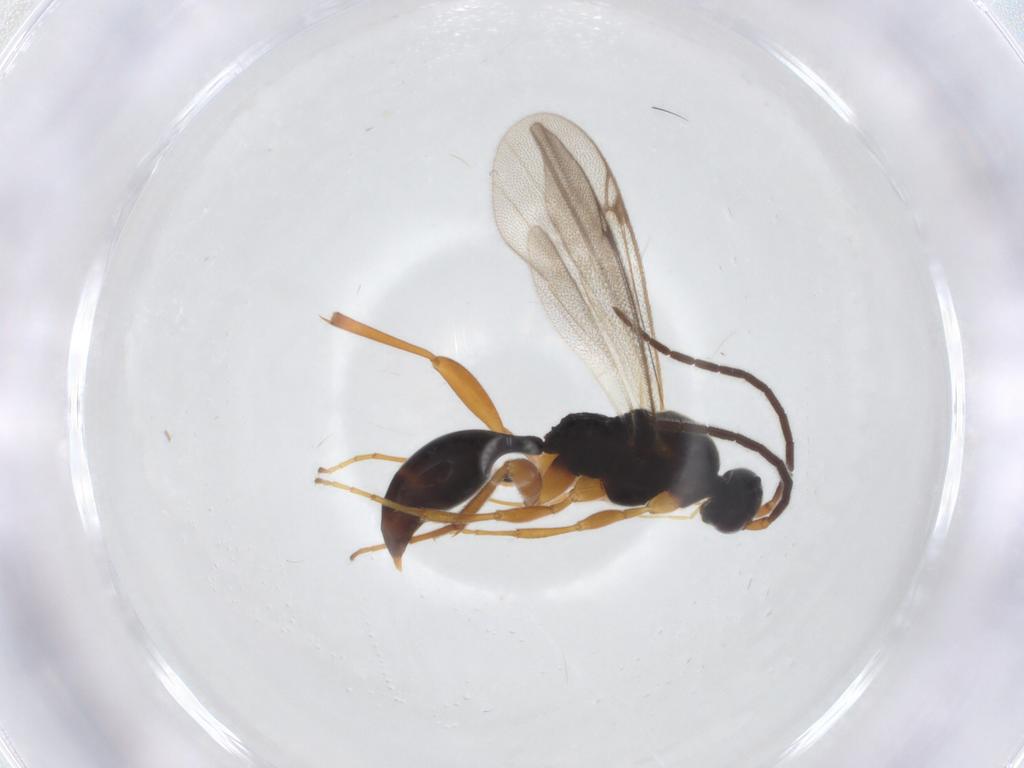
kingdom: Animalia
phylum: Arthropoda
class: Insecta
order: Hymenoptera
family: Proctotrupidae
